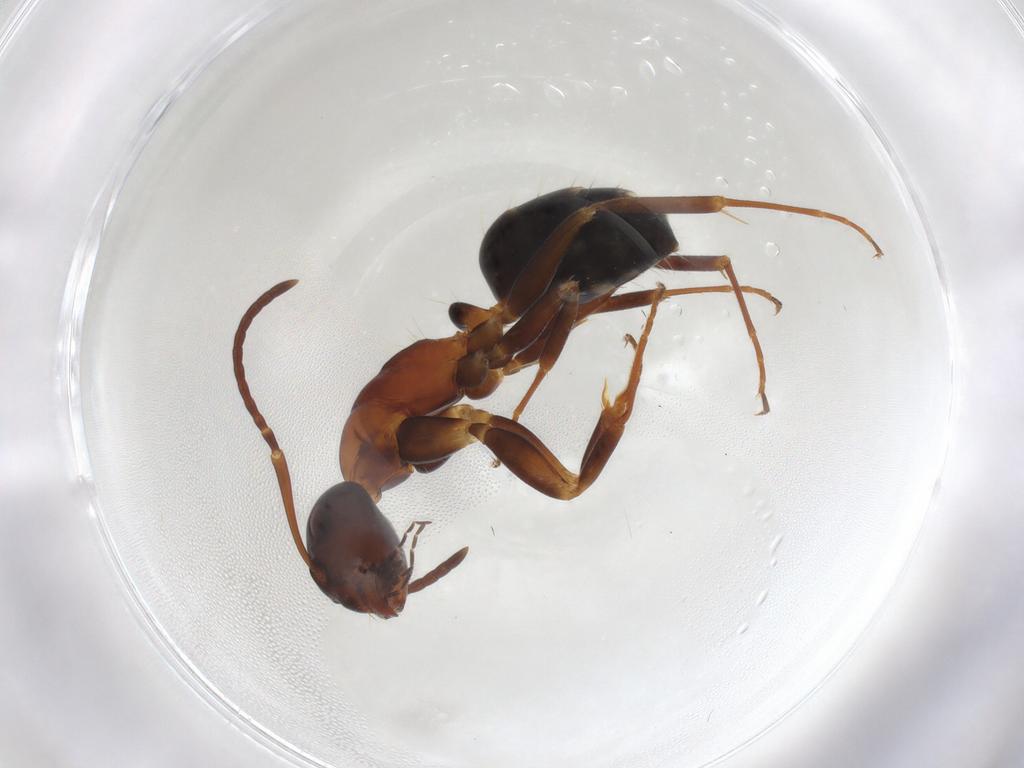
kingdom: Animalia
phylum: Arthropoda
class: Insecta
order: Hymenoptera
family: Formicidae
